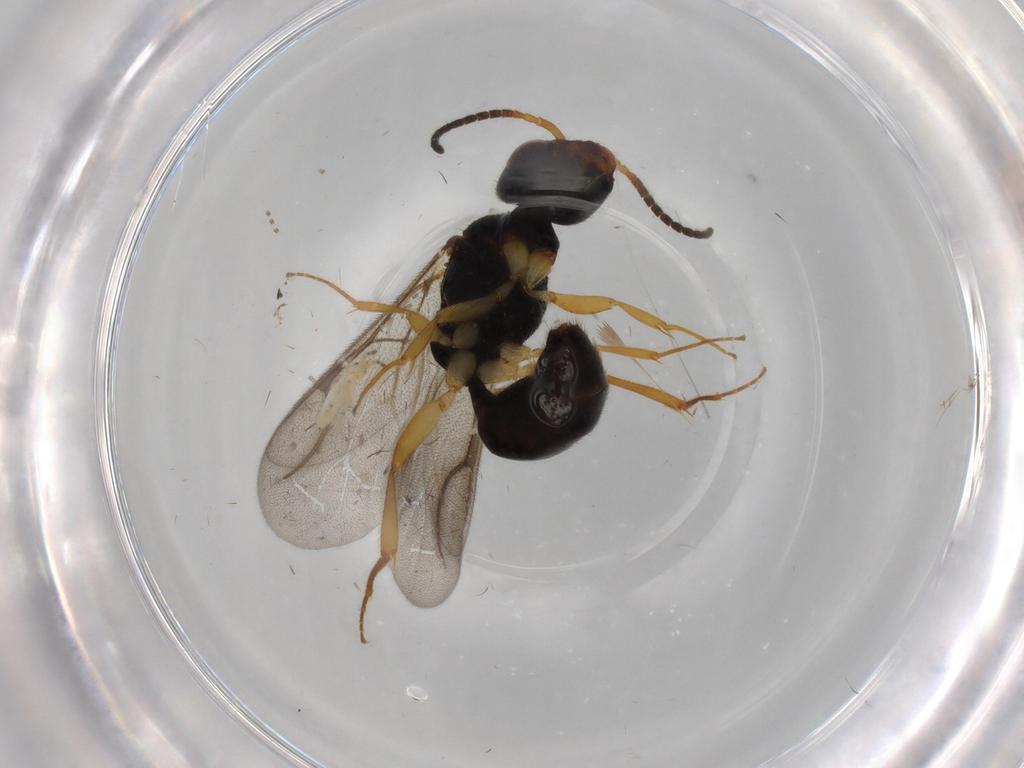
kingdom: Animalia
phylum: Arthropoda
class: Insecta
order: Hymenoptera
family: Bethylidae
